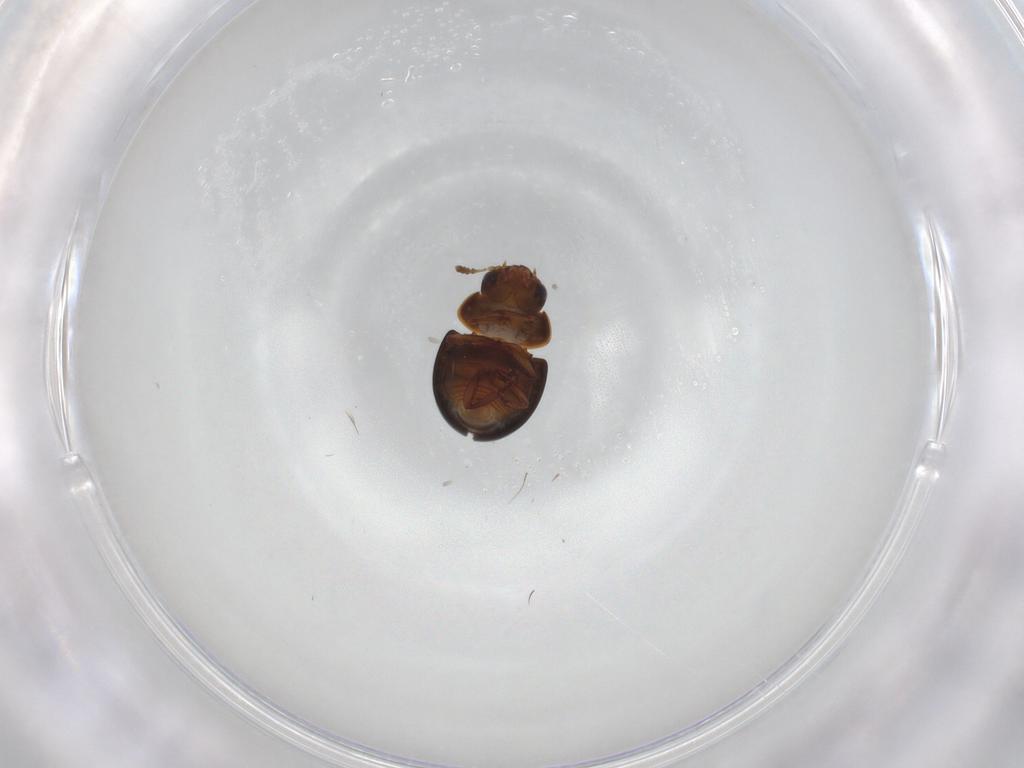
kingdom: Animalia
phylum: Arthropoda
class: Insecta
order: Coleoptera
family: Leiodidae
